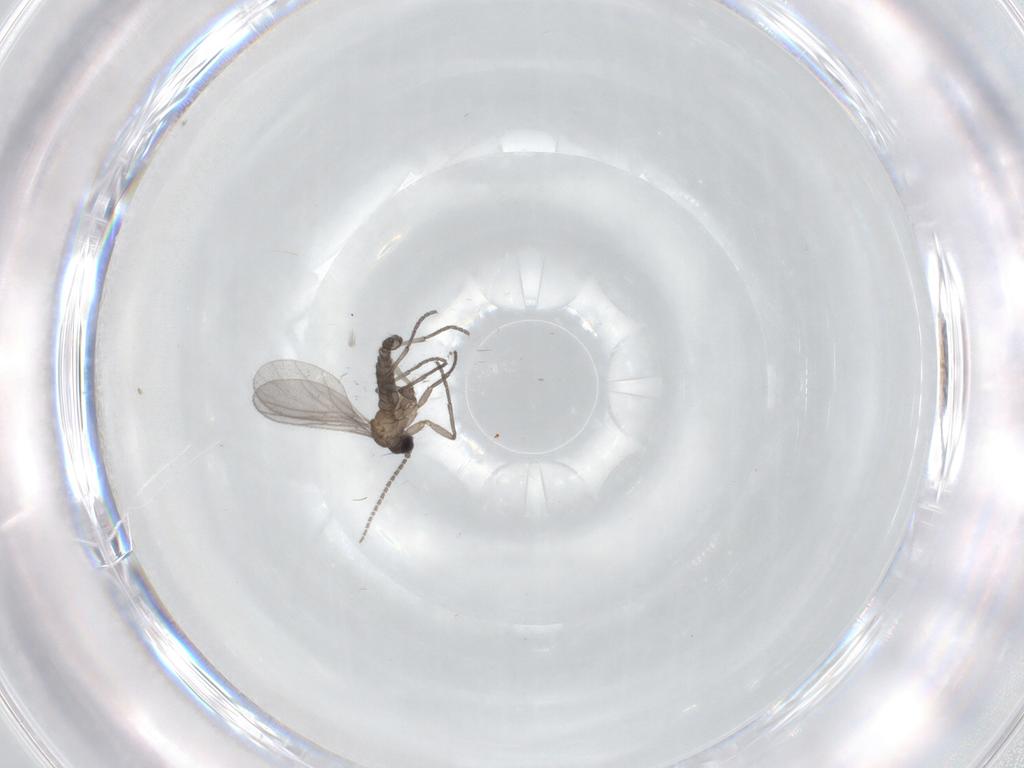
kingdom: Animalia
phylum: Arthropoda
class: Insecta
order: Diptera
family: Sciaridae
